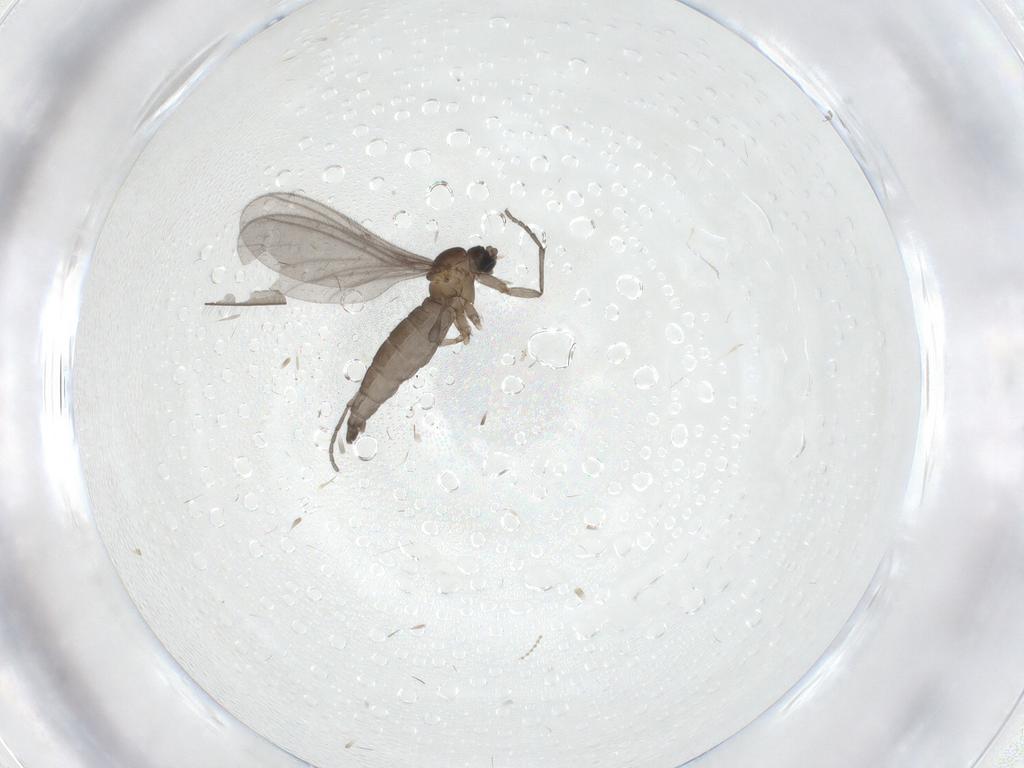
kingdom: Animalia
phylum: Arthropoda
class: Insecta
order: Diptera
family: Sciaridae
